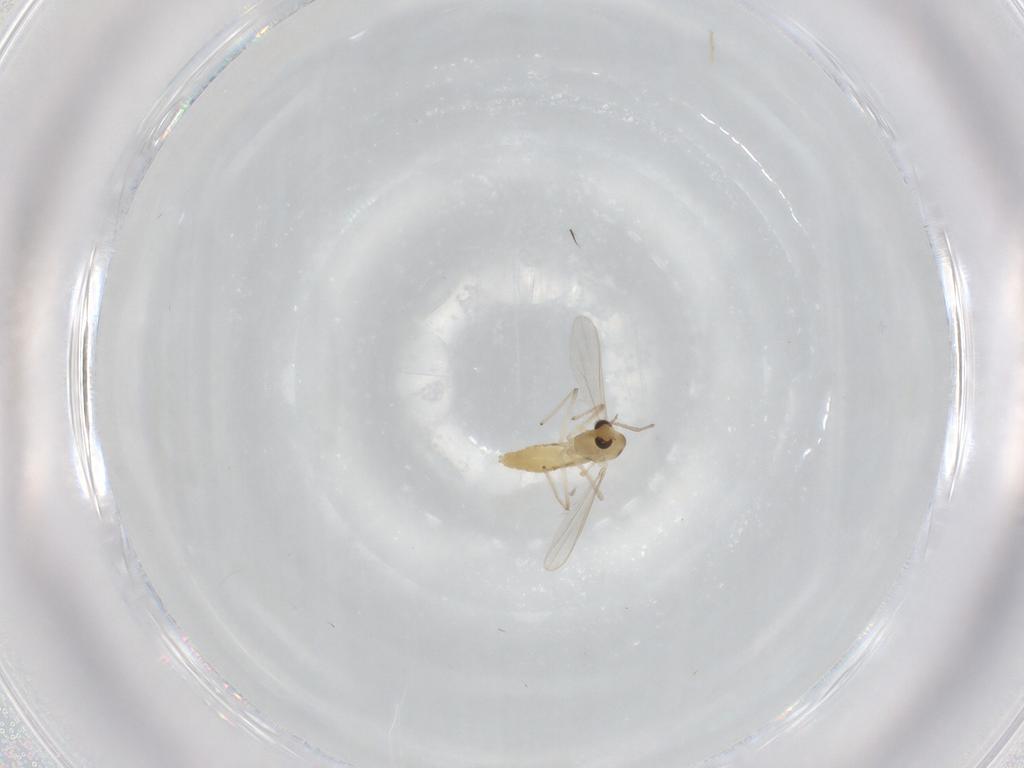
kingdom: Animalia
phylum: Arthropoda
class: Insecta
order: Diptera
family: Chironomidae
